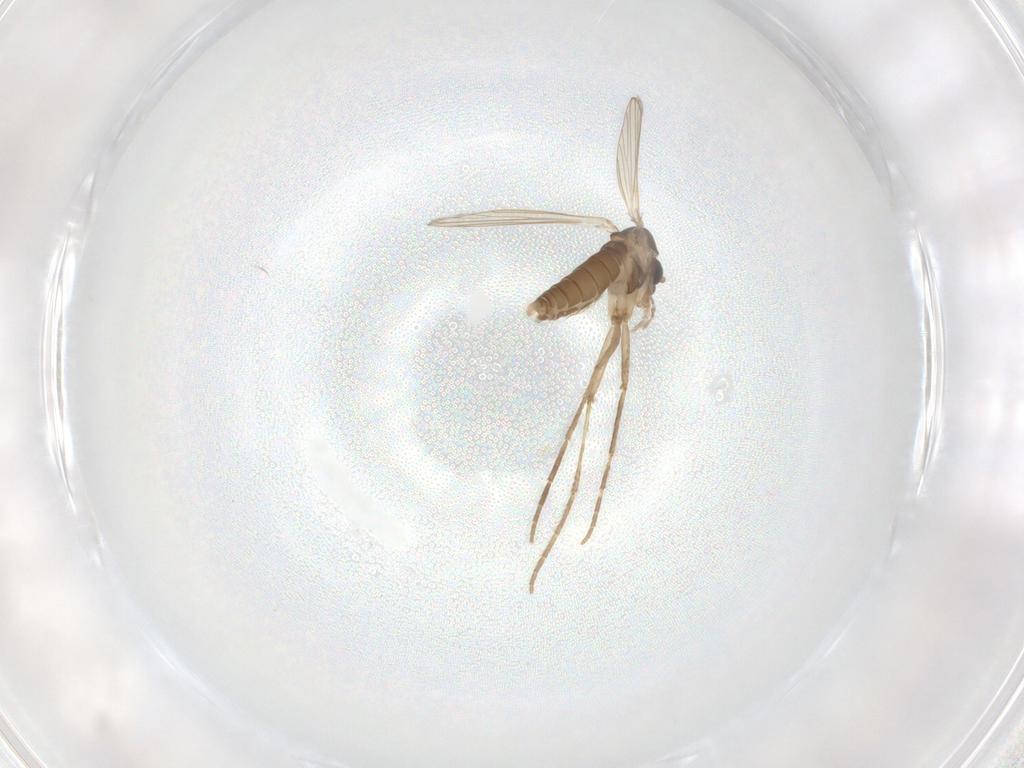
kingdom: Animalia
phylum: Arthropoda
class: Insecta
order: Diptera
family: Psychodidae
